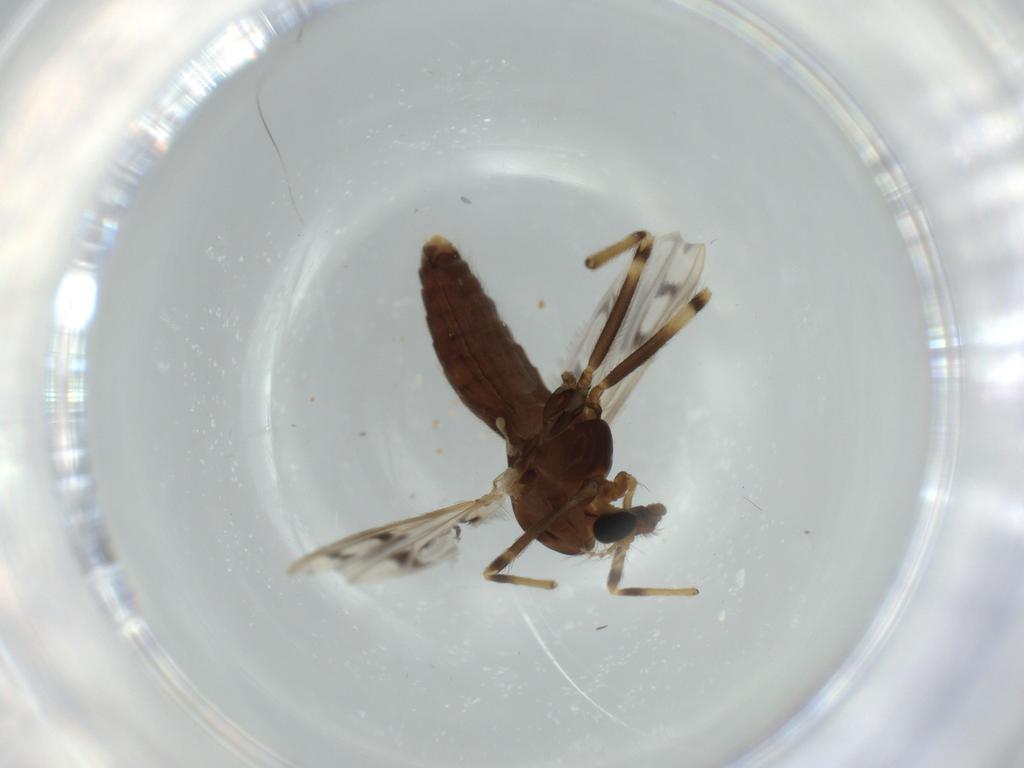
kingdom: Animalia
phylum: Arthropoda
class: Insecta
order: Diptera
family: Chironomidae
